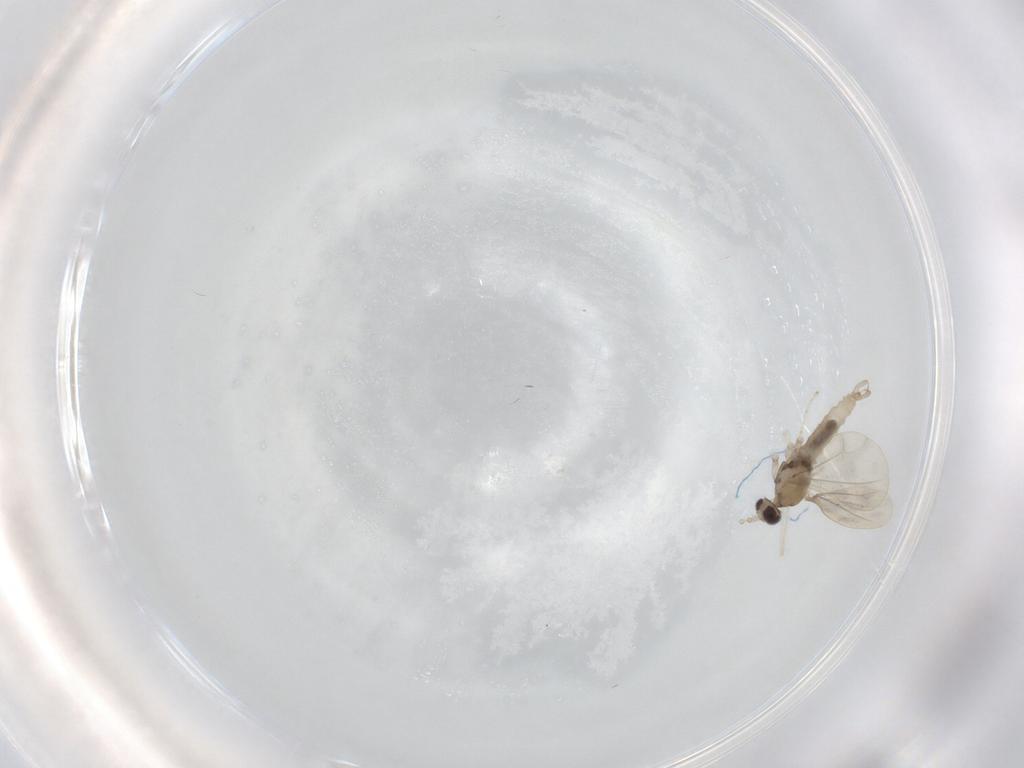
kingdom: Animalia
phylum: Arthropoda
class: Insecta
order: Diptera
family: Cecidomyiidae
